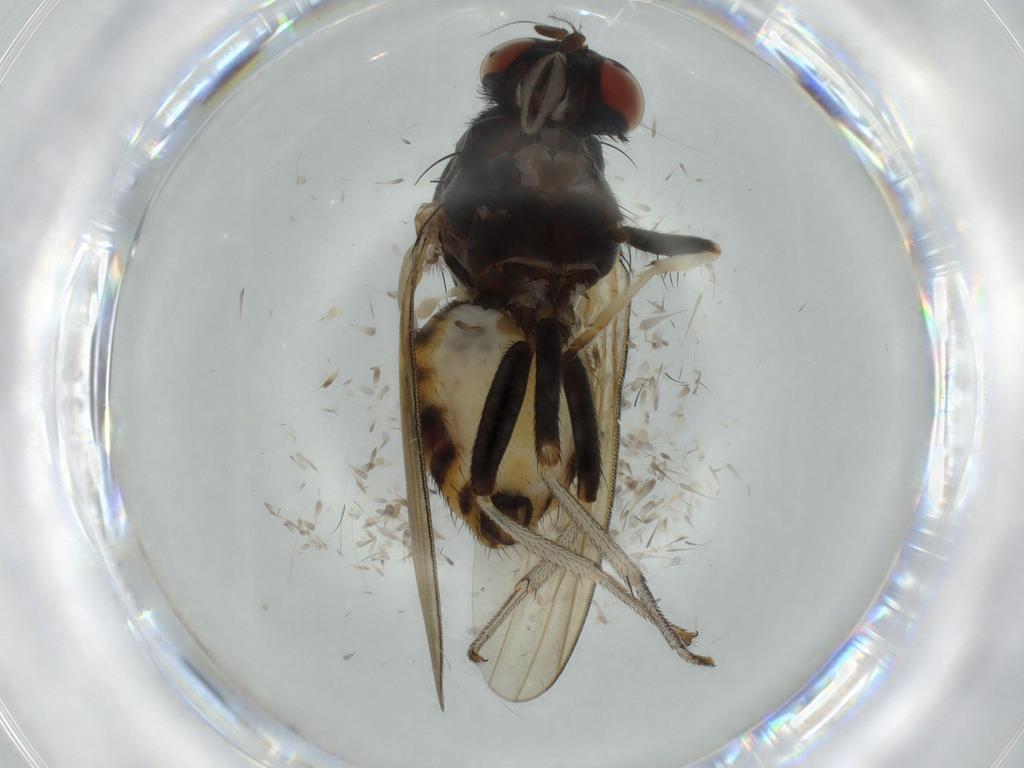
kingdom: Animalia
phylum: Arthropoda
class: Insecta
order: Diptera
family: Ceratopogonidae
